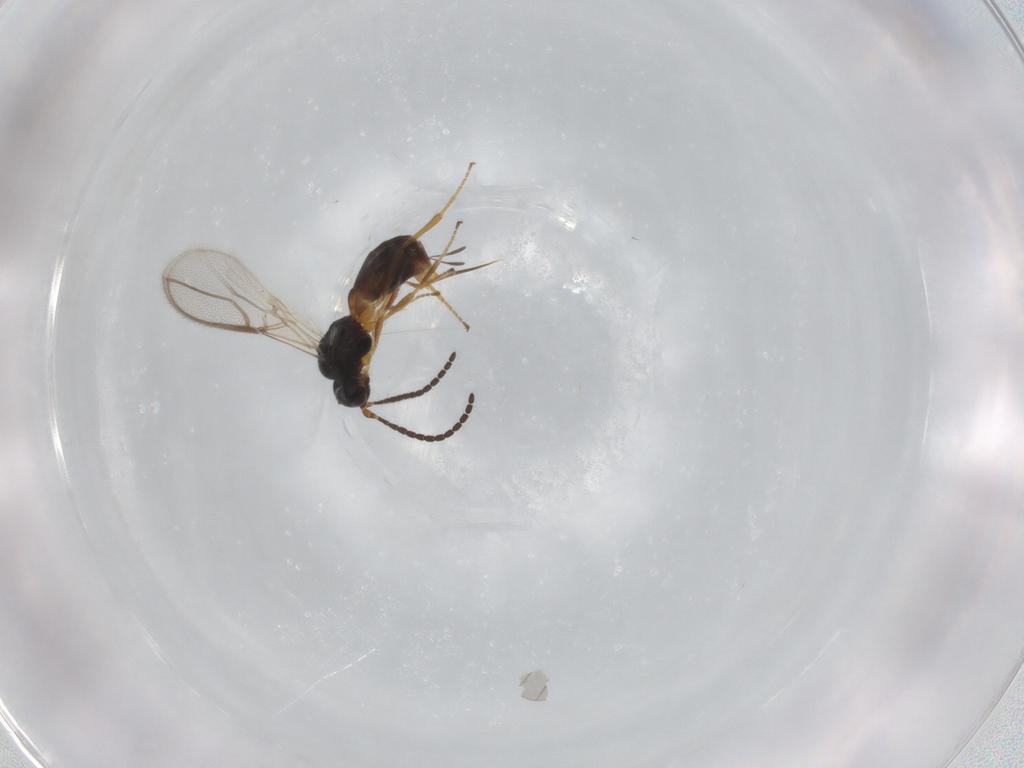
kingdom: Animalia
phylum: Arthropoda
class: Insecta
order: Hymenoptera
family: Braconidae
